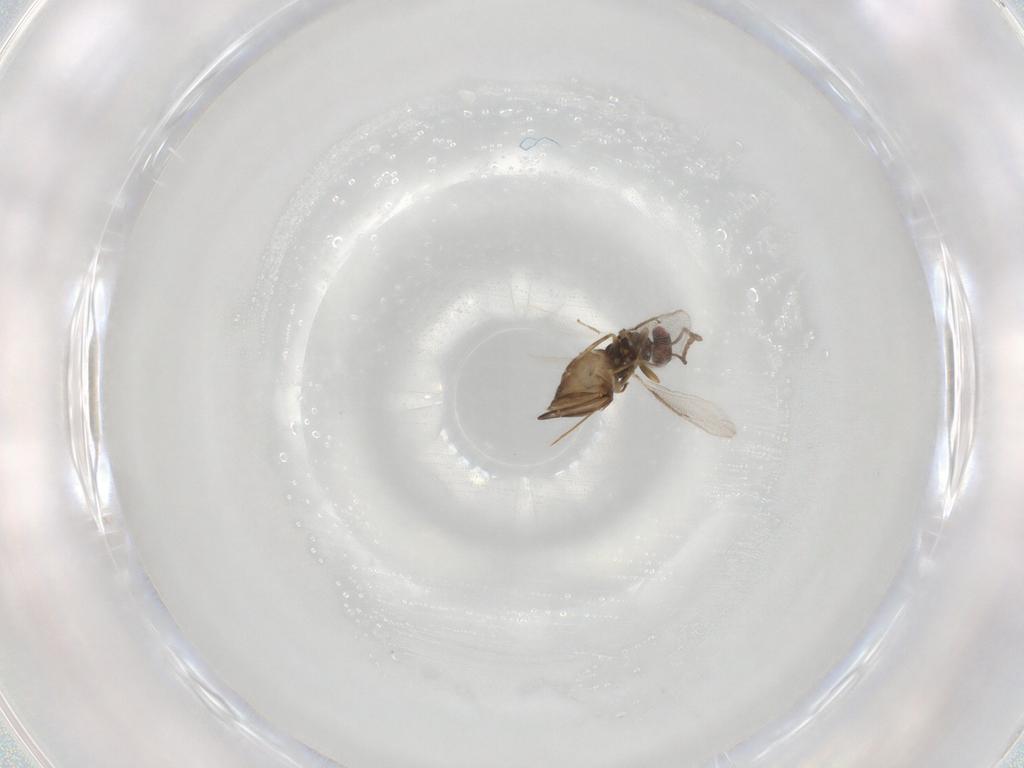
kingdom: Animalia
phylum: Arthropoda
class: Insecta
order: Hymenoptera
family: Eulophidae
